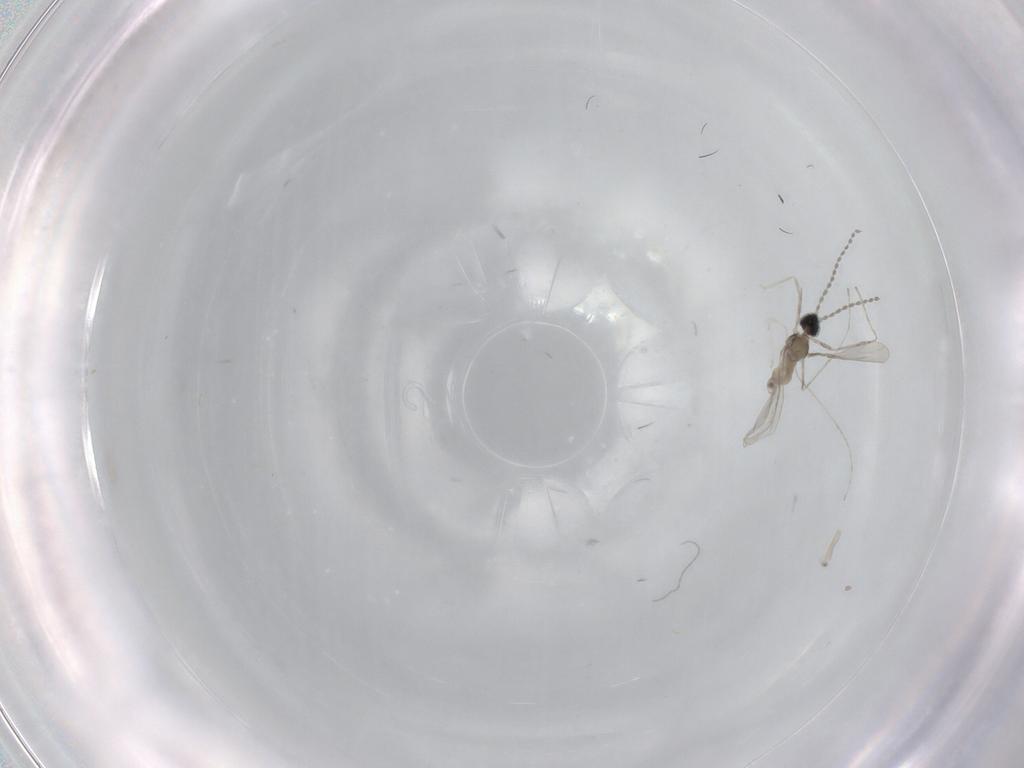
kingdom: Animalia
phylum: Arthropoda
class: Insecta
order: Diptera
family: Cecidomyiidae
